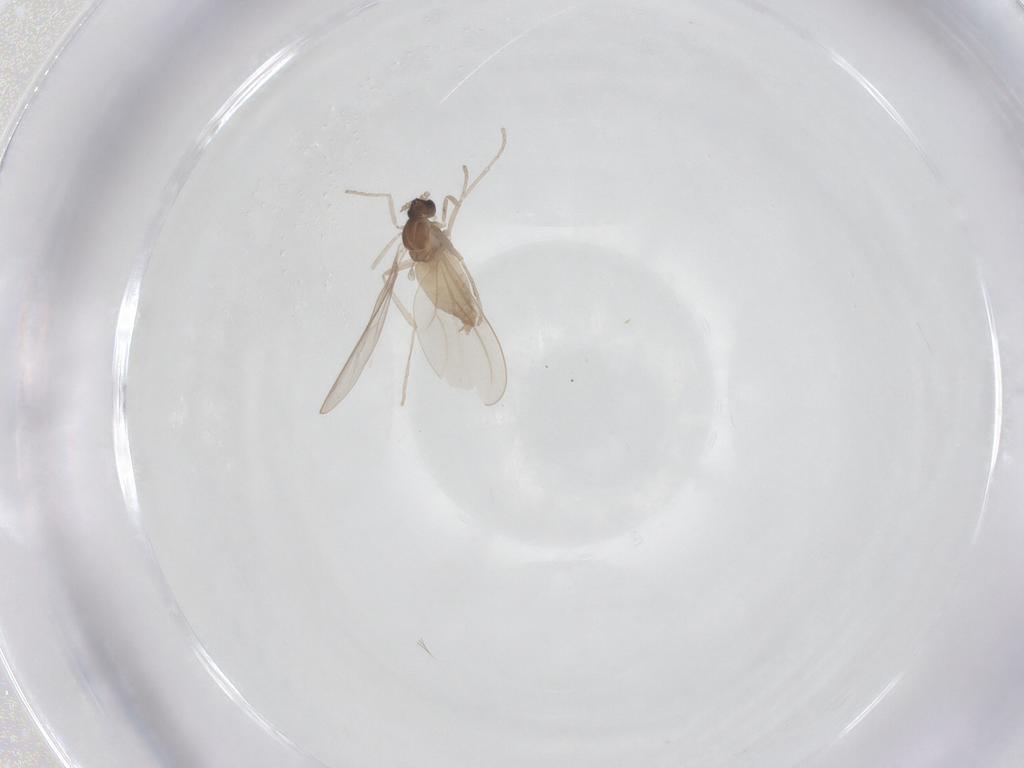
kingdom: Animalia
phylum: Arthropoda
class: Insecta
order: Diptera
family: Cecidomyiidae
